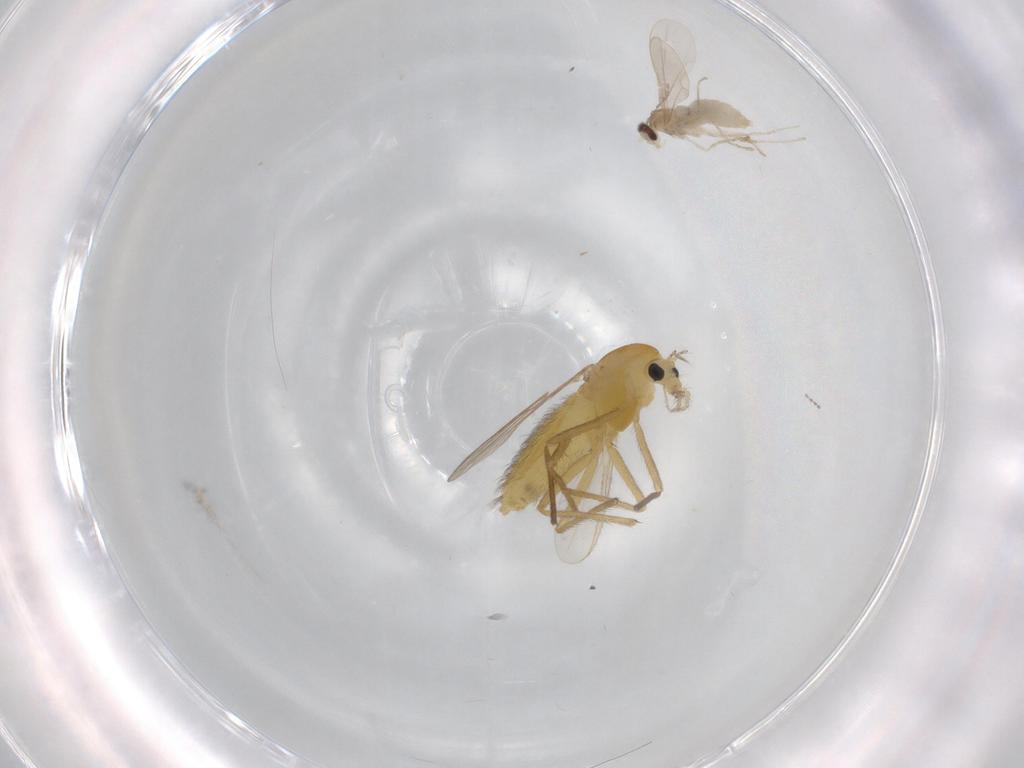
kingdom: Animalia
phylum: Arthropoda
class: Insecta
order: Diptera
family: Chironomidae
